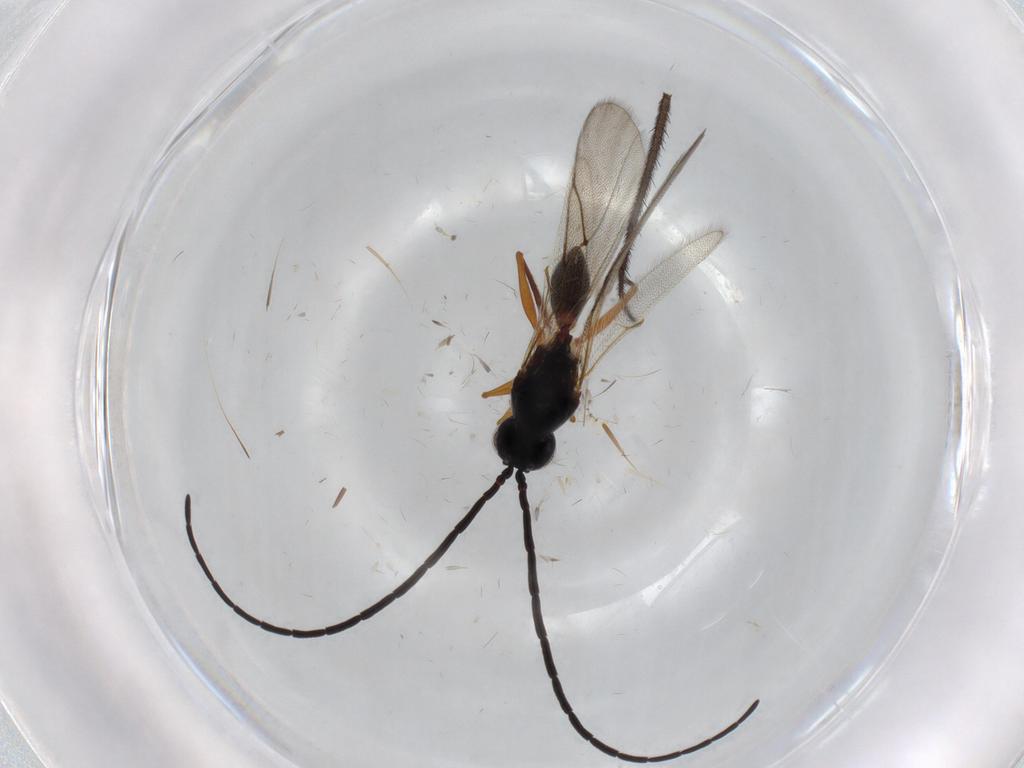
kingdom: Animalia
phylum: Arthropoda
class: Insecta
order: Hymenoptera
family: Figitidae
